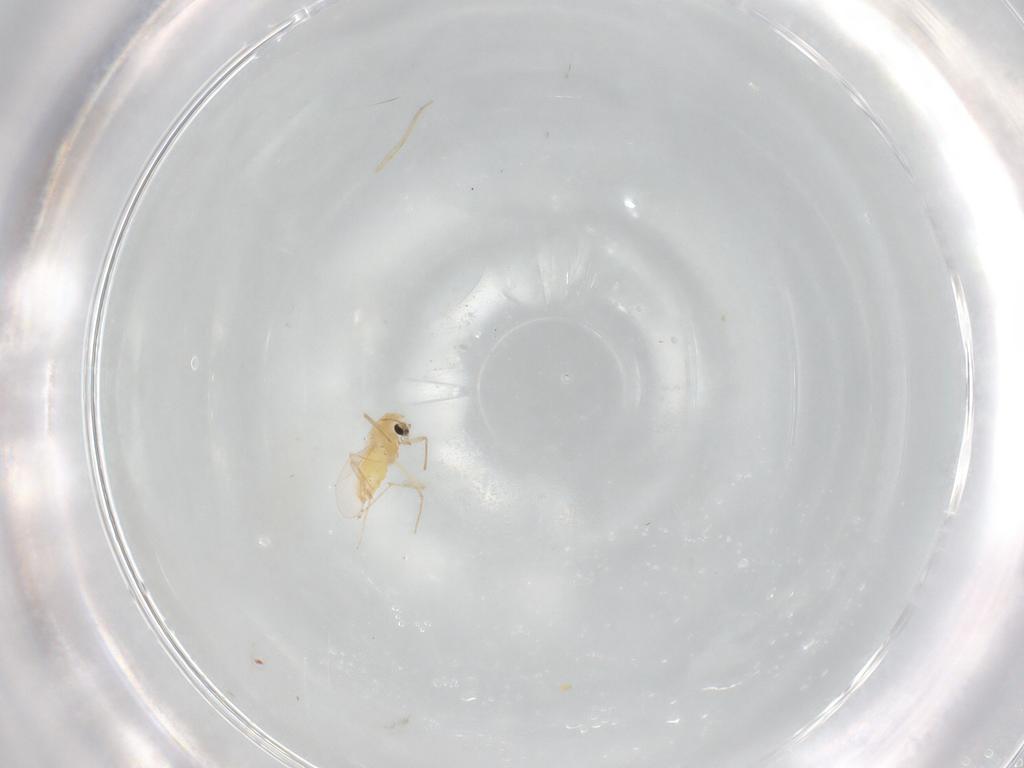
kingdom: Animalia
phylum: Arthropoda
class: Insecta
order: Diptera
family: Chironomidae
